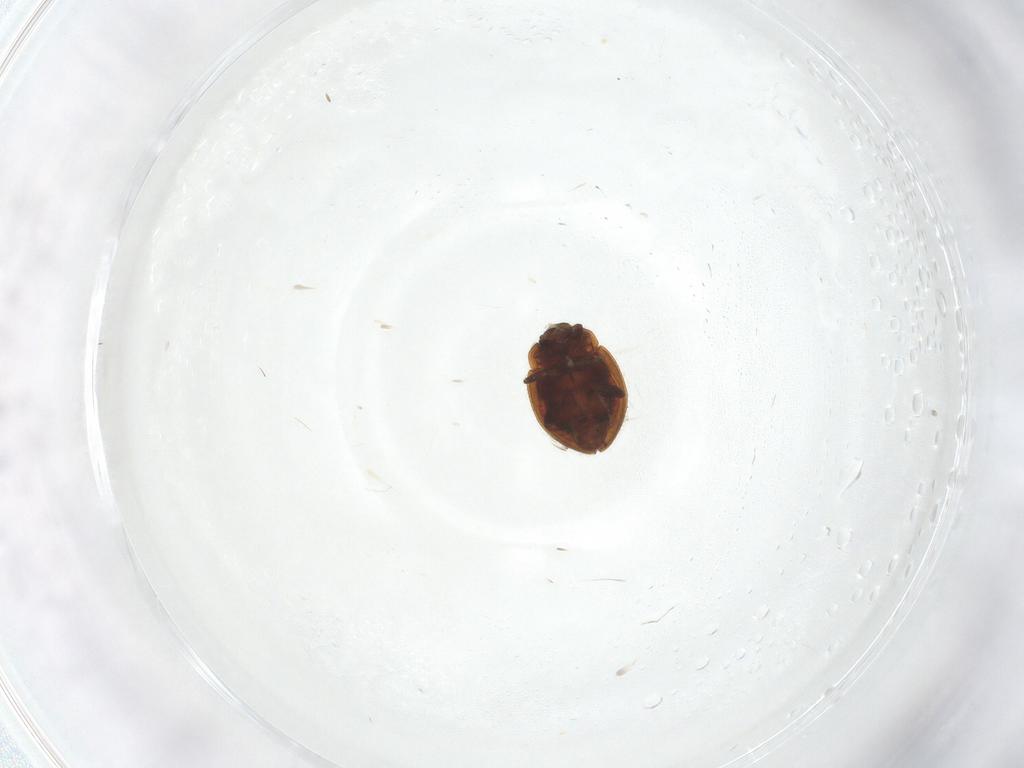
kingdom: Animalia
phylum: Arthropoda
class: Insecta
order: Coleoptera
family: Coccinellidae
